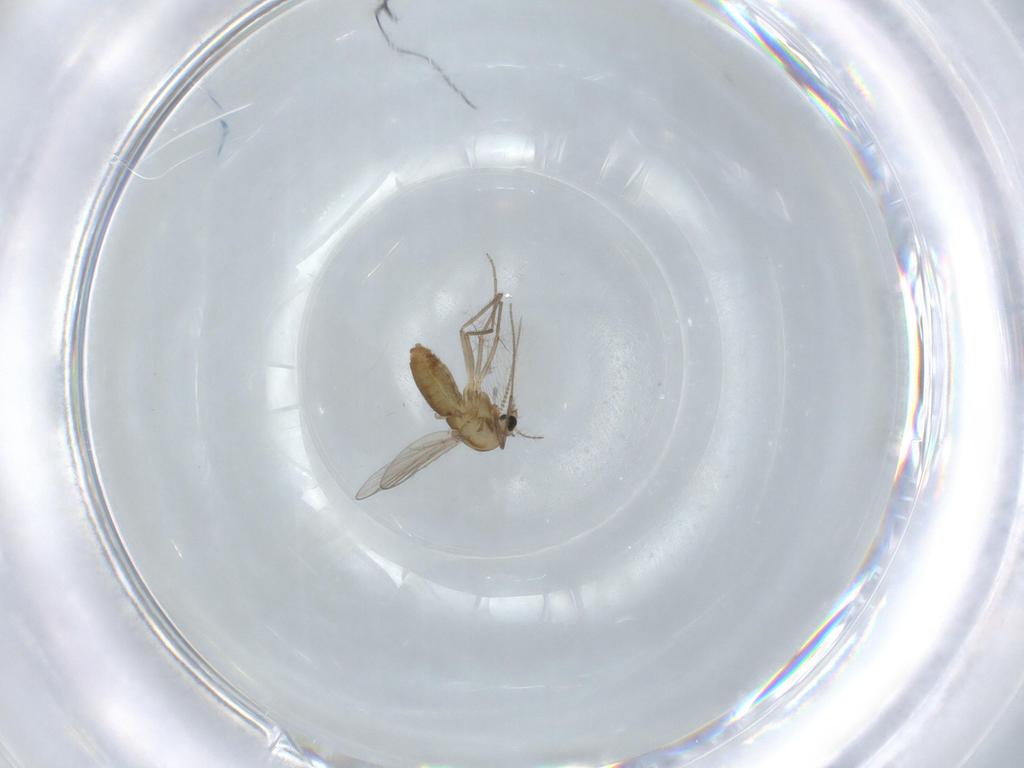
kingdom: Animalia
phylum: Arthropoda
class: Insecta
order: Diptera
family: Chironomidae
